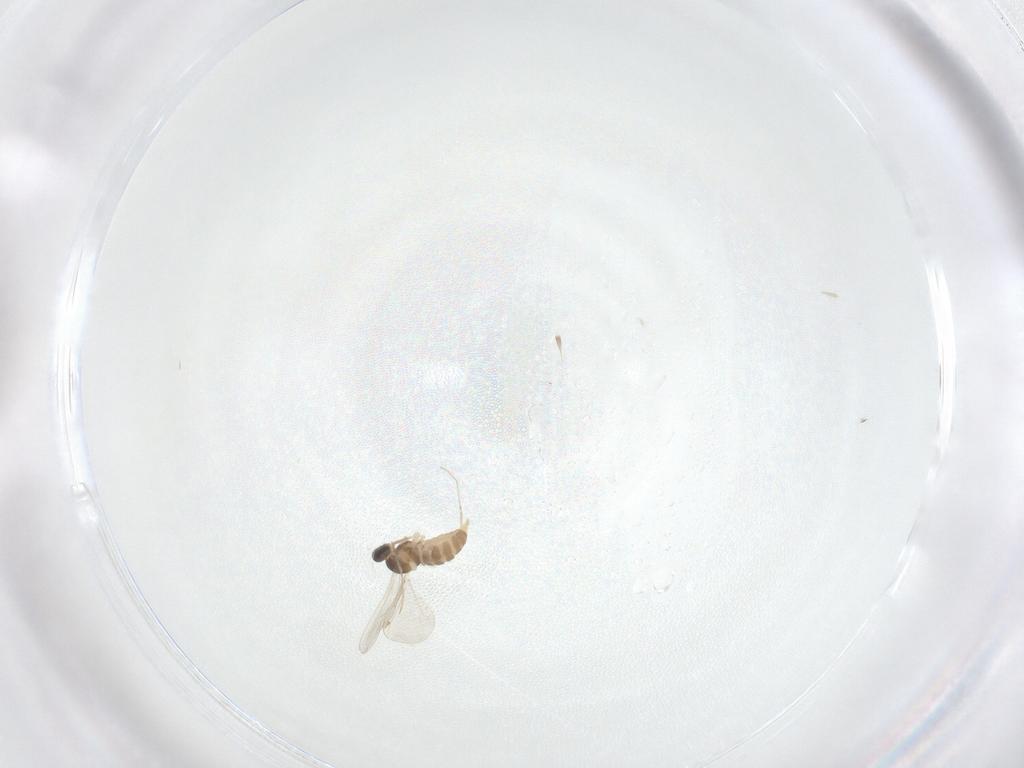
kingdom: Animalia
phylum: Arthropoda
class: Insecta
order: Diptera
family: Cecidomyiidae
